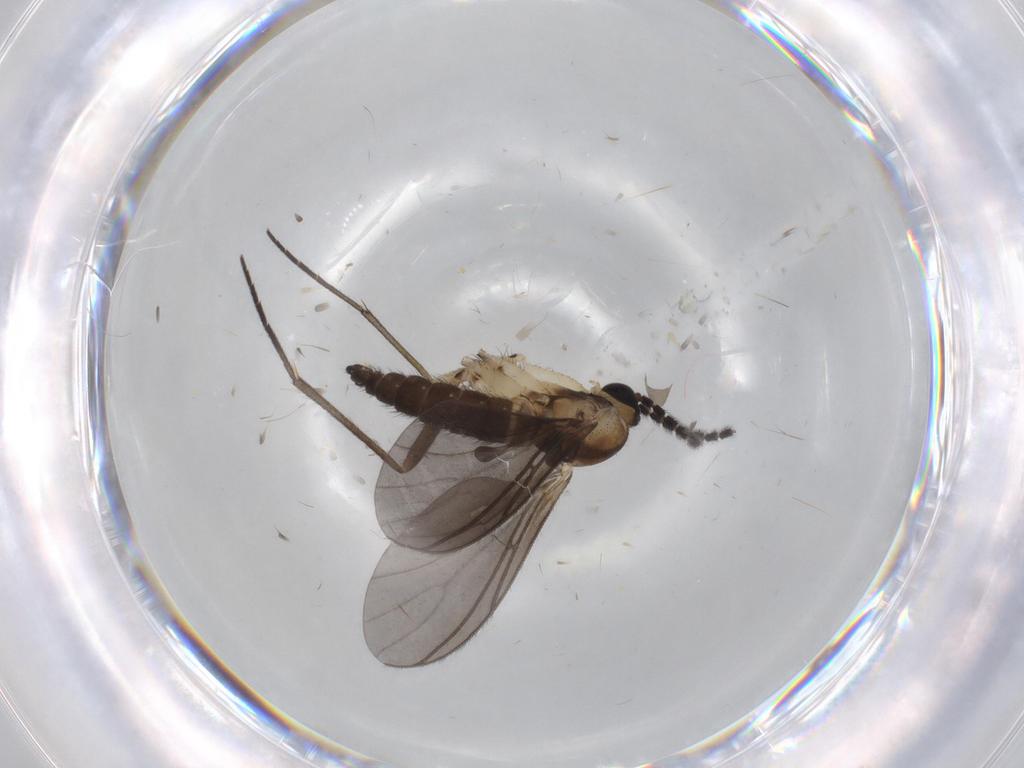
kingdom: Animalia
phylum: Arthropoda
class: Insecta
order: Diptera
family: Sciaridae
